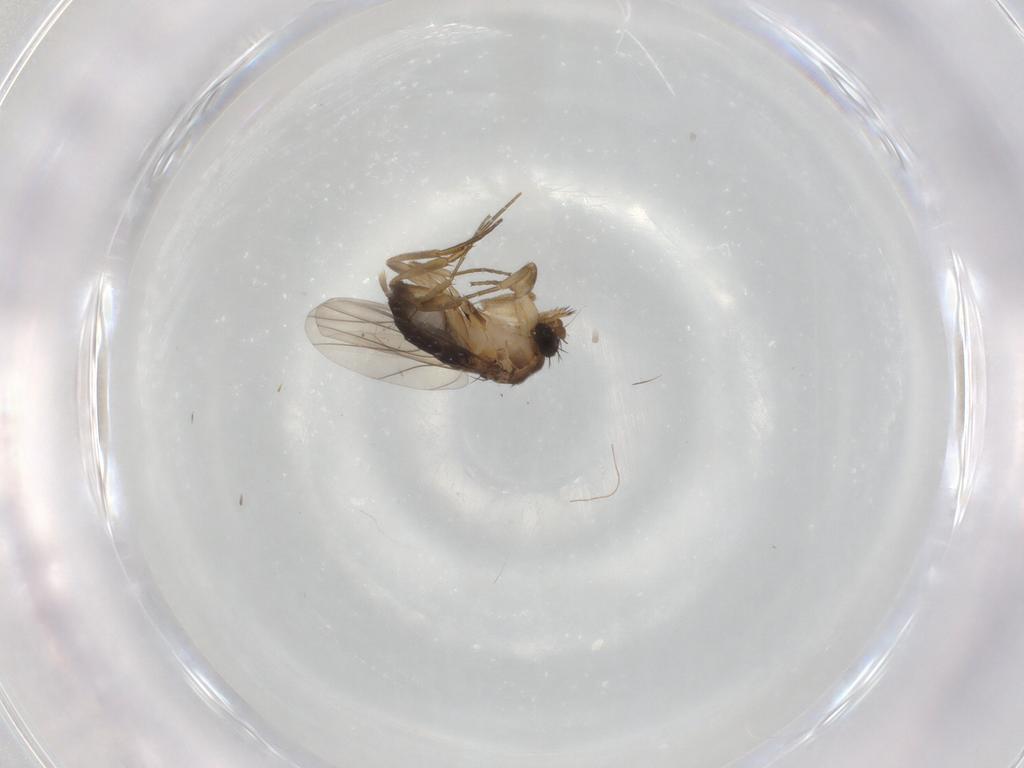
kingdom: Animalia
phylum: Arthropoda
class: Insecta
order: Diptera
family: Phoridae
